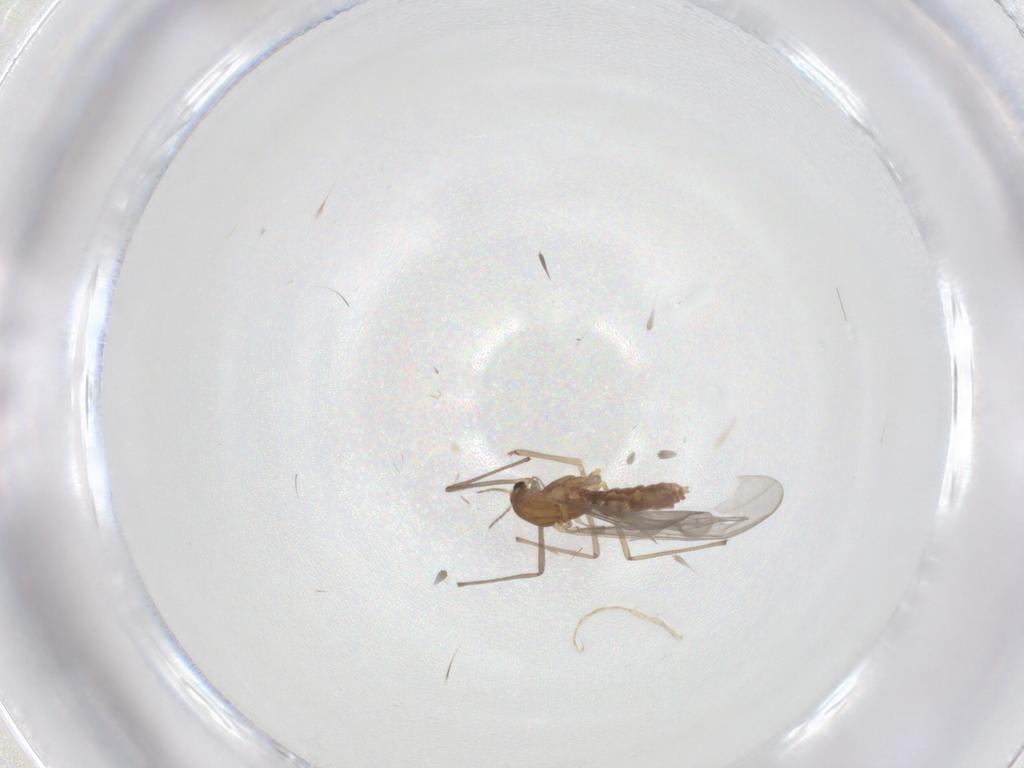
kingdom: Animalia
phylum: Arthropoda
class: Insecta
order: Diptera
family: Chironomidae
